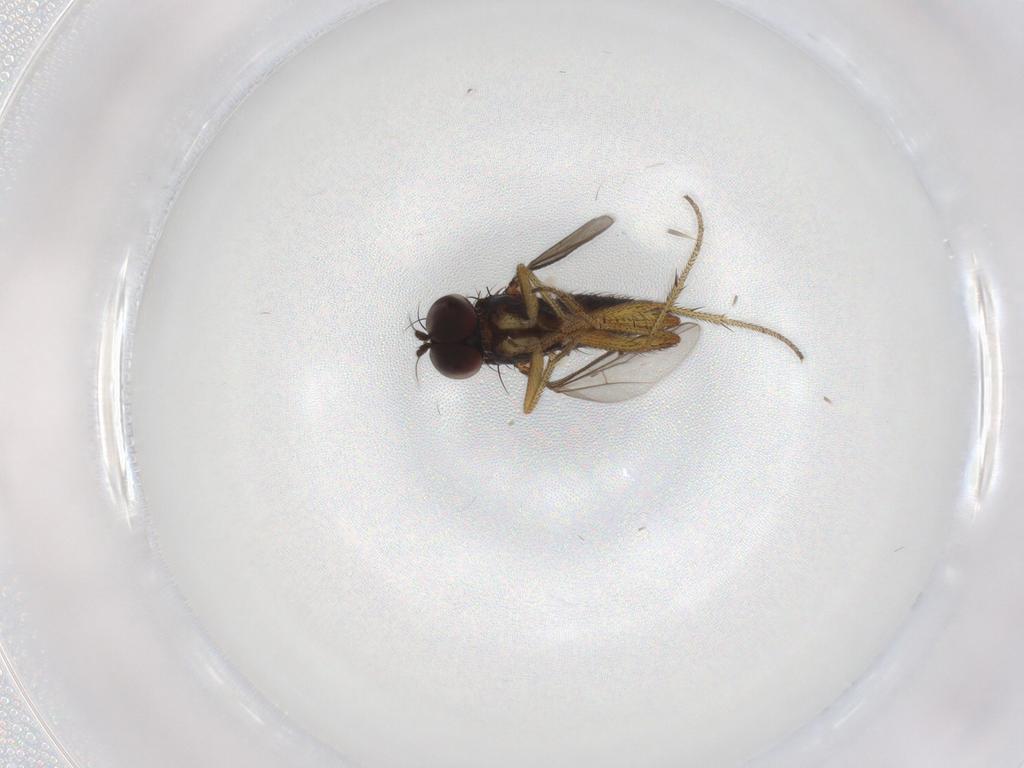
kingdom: Animalia
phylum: Arthropoda
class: Insecta
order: Diptera
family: Dolichopodidae
